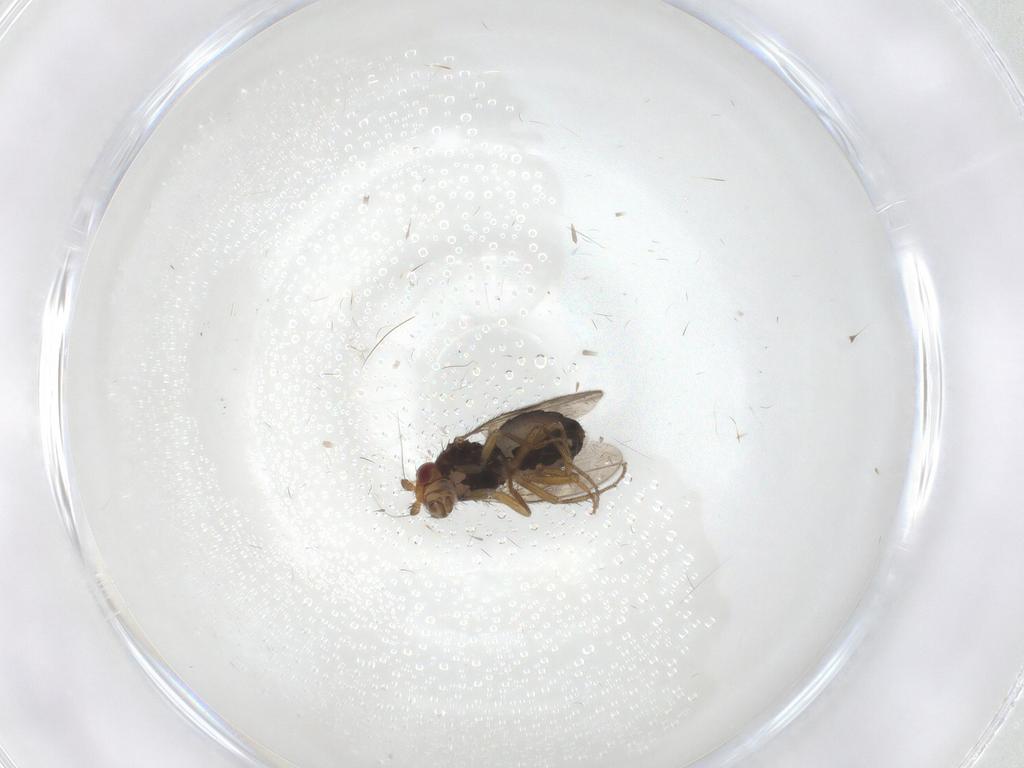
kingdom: Animalia
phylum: Arthropoda
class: Insecta
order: Diptera
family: Sphaeroceridae
